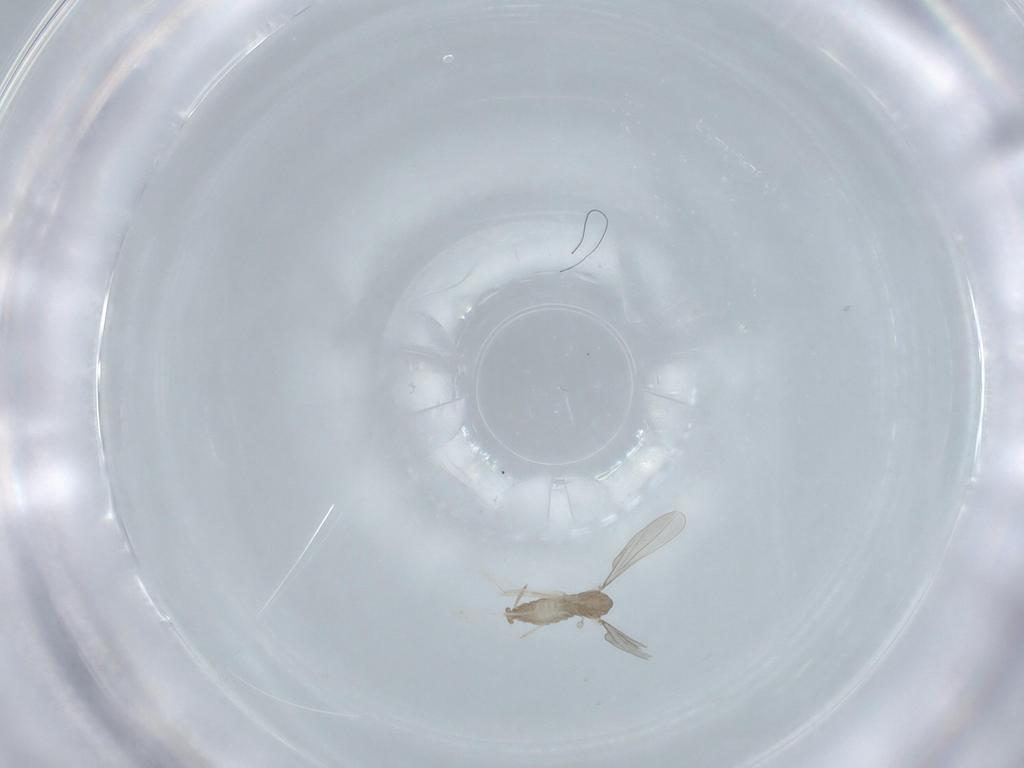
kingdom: Animalia
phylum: Arthropoda
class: Insecta
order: Diptera
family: Cecidomyiidae
